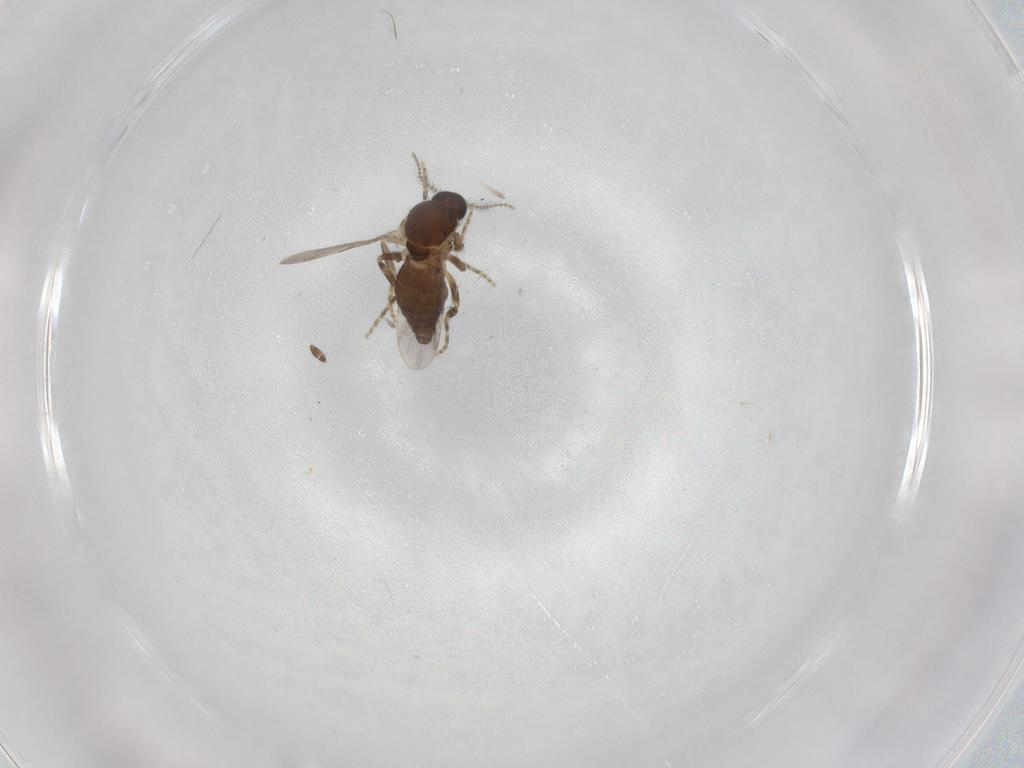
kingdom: Animalia
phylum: Arthropoda
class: Insecta
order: Diptera
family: Ceratopogonidae
